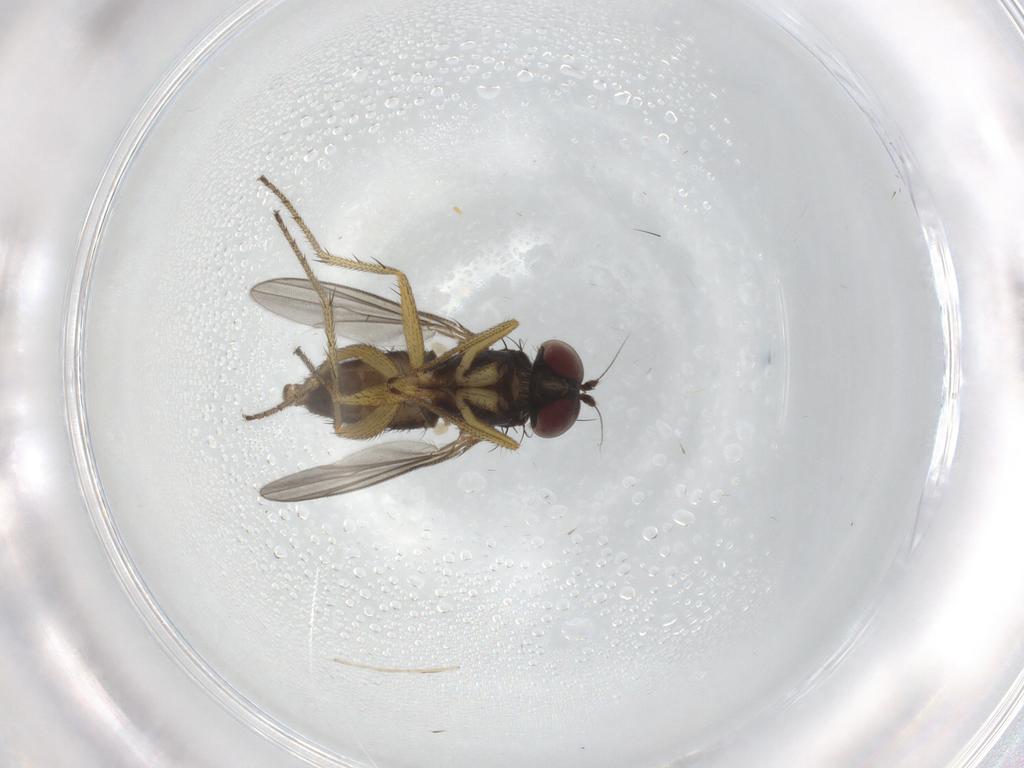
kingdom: Animalia
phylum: Arthropoda
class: Insecta
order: Diptera
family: Dolichopodidae
